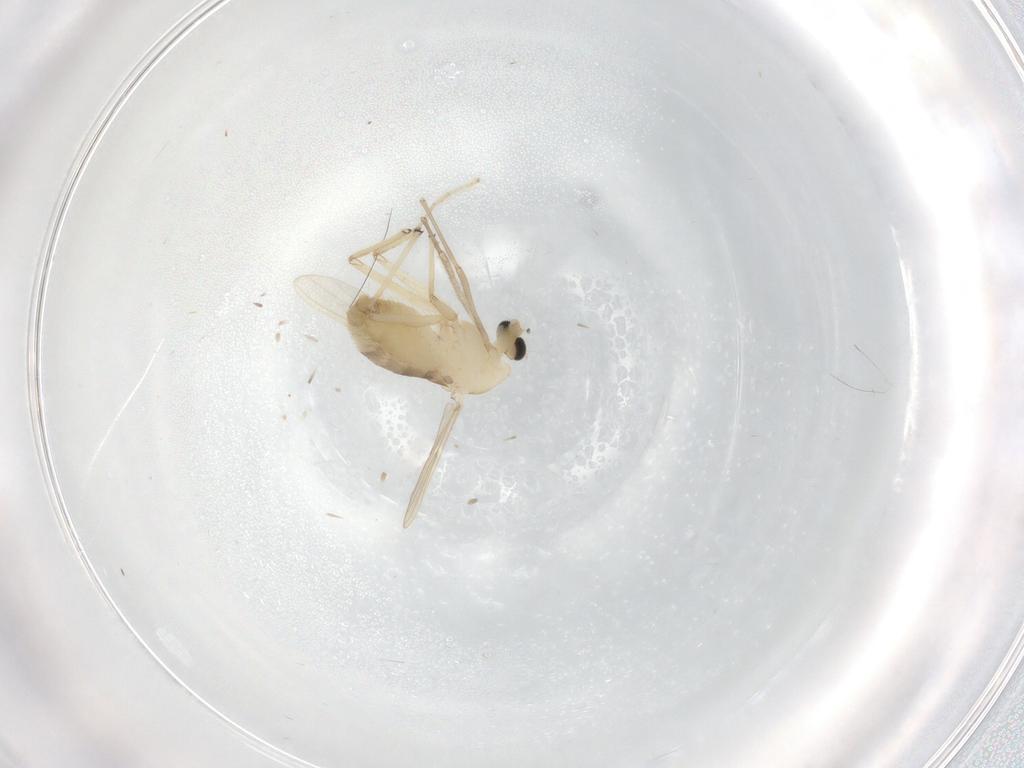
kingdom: Animalia
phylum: Arthropoda
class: Insecta
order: Diptera
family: Chironomidae
